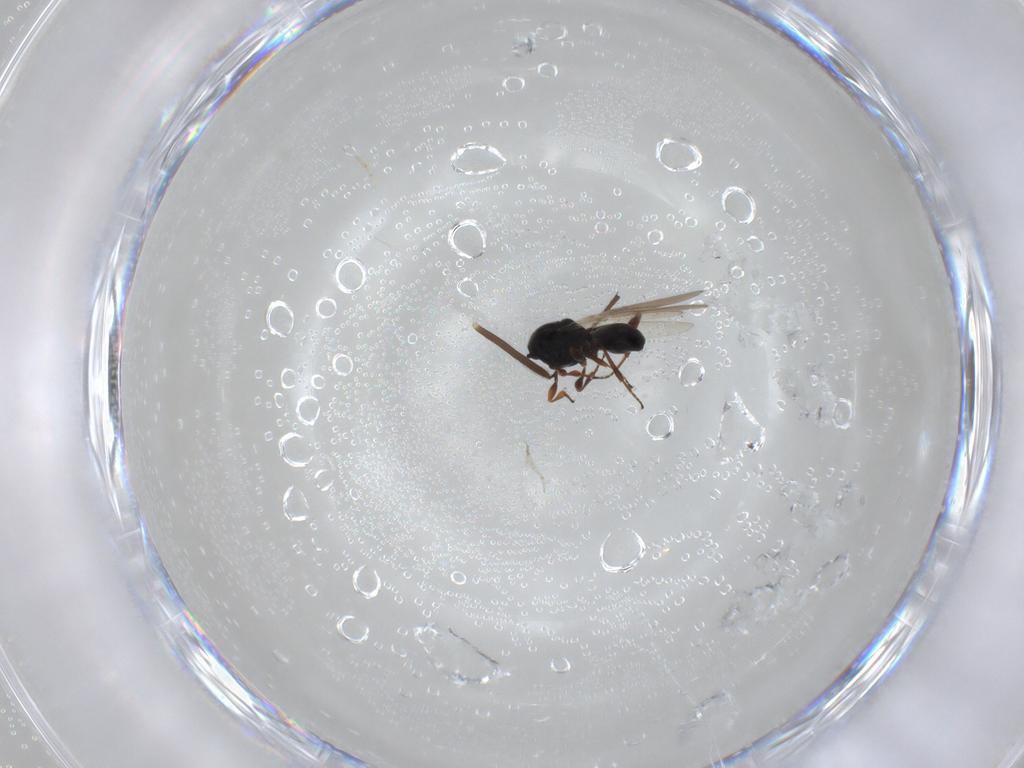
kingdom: Animalia
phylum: Arthropoda
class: Insecta
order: Hymenoptera
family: Platygastridae
